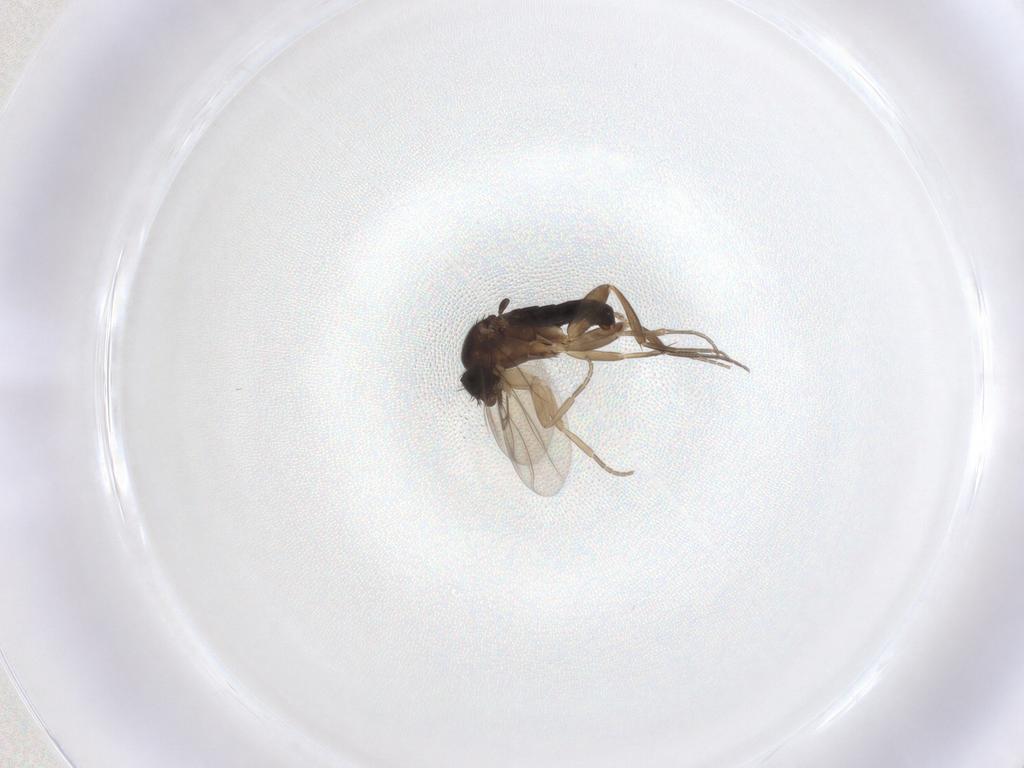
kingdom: Animalia
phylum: Arthropoda
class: Insecta
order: Diptera
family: Phoridae
